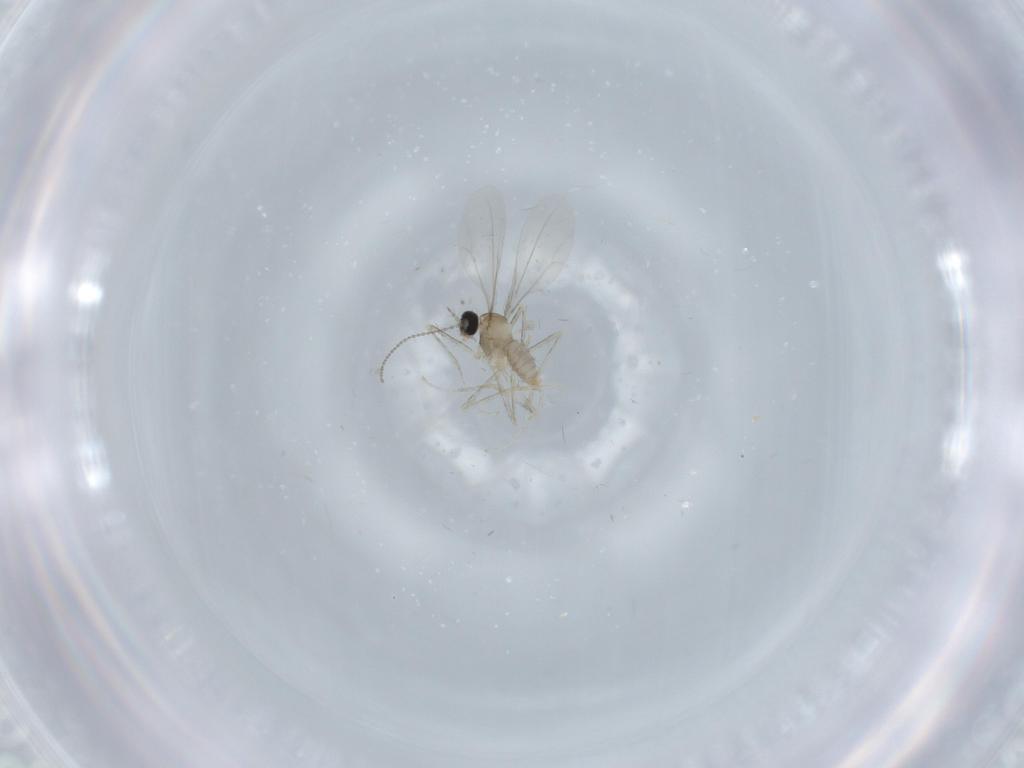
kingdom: Animalia
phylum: Arthropoda
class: Insecta
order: Diptera
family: Cecidomyiidae
